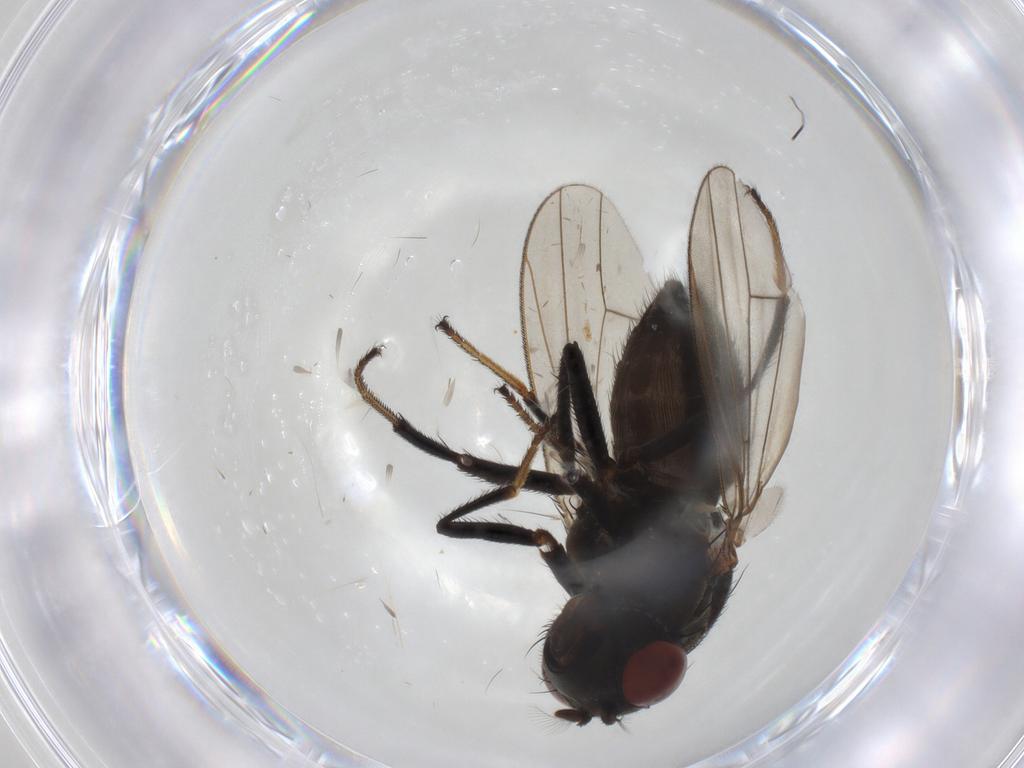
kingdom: Animalia
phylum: Arthropoda
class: Insecta
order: Diptera
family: Ephydridae
